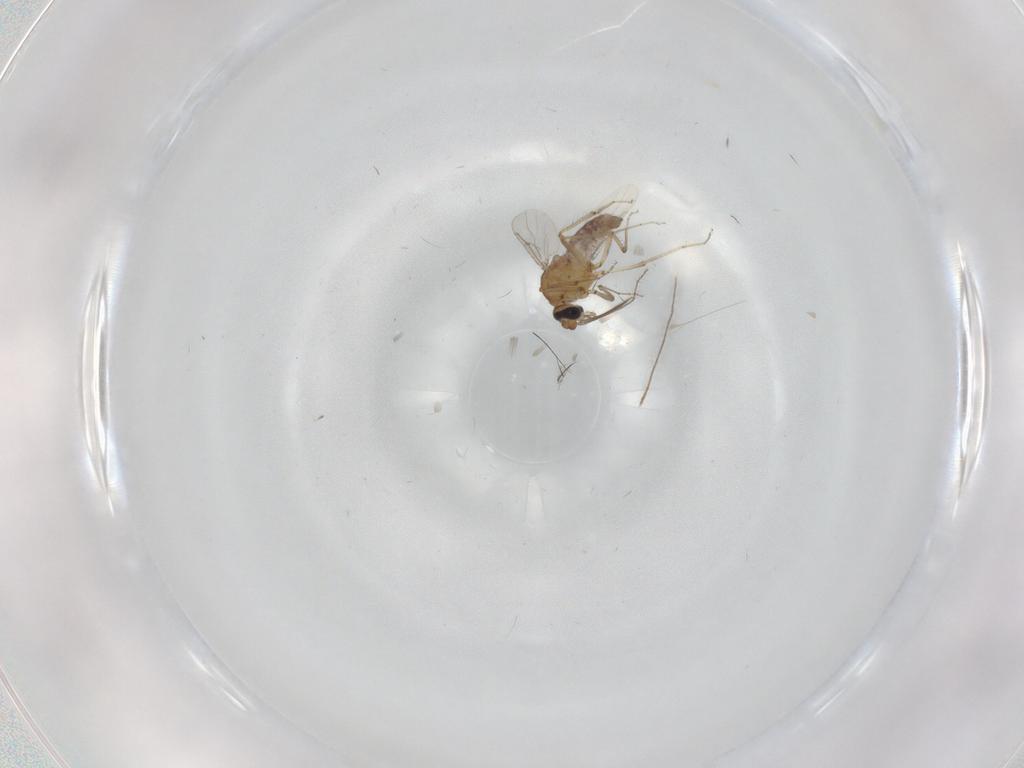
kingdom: Animalia
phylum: Arthropoda
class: Insecta
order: Diptera
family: Ceratopogonidae
